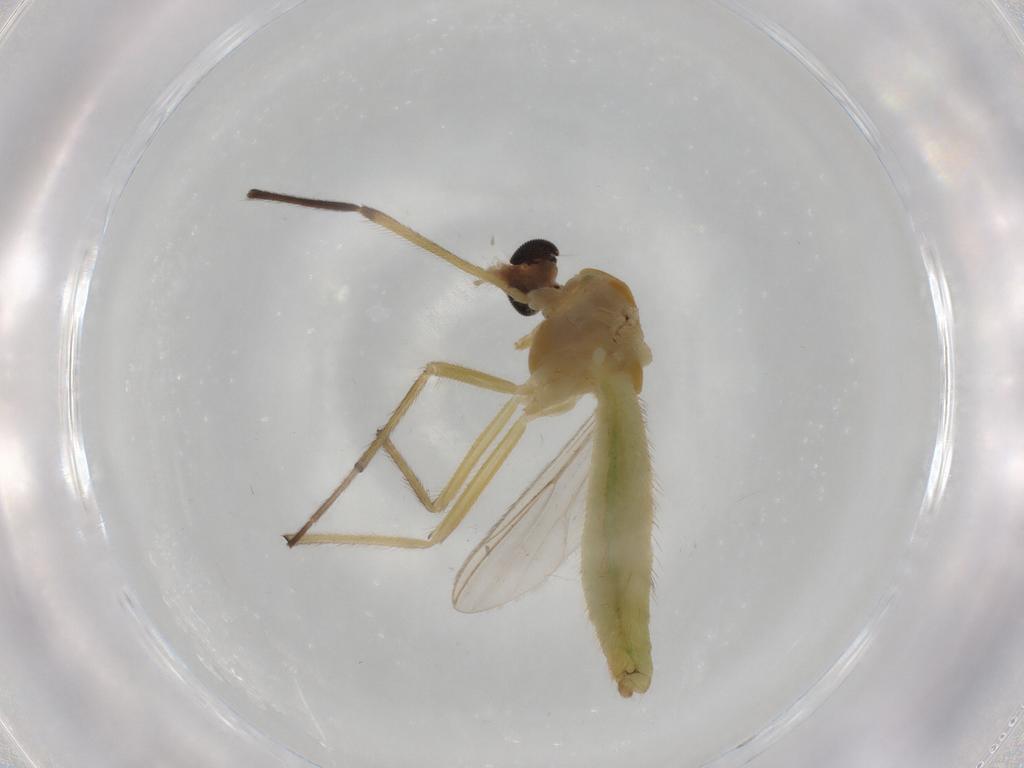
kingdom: Animalia
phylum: Arthropoda
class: Insecta
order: Diptera
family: Chironomidae
